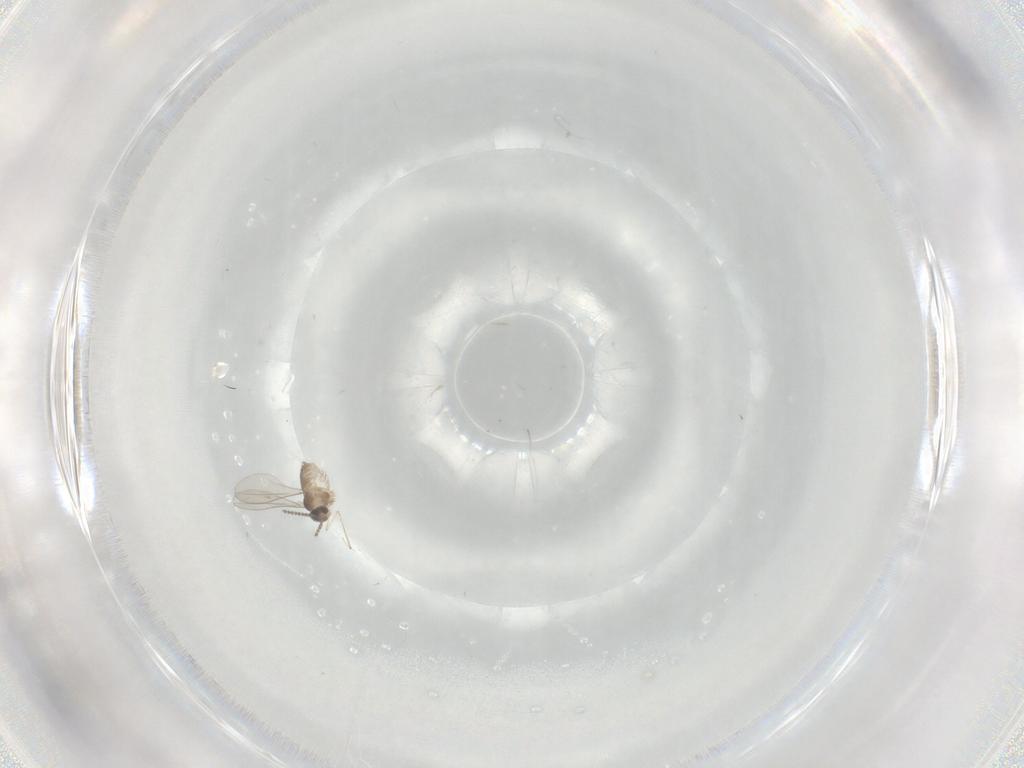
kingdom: Animalia
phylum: Arthropoda
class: Insecta
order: Diptera
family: Cecidomyiidae
